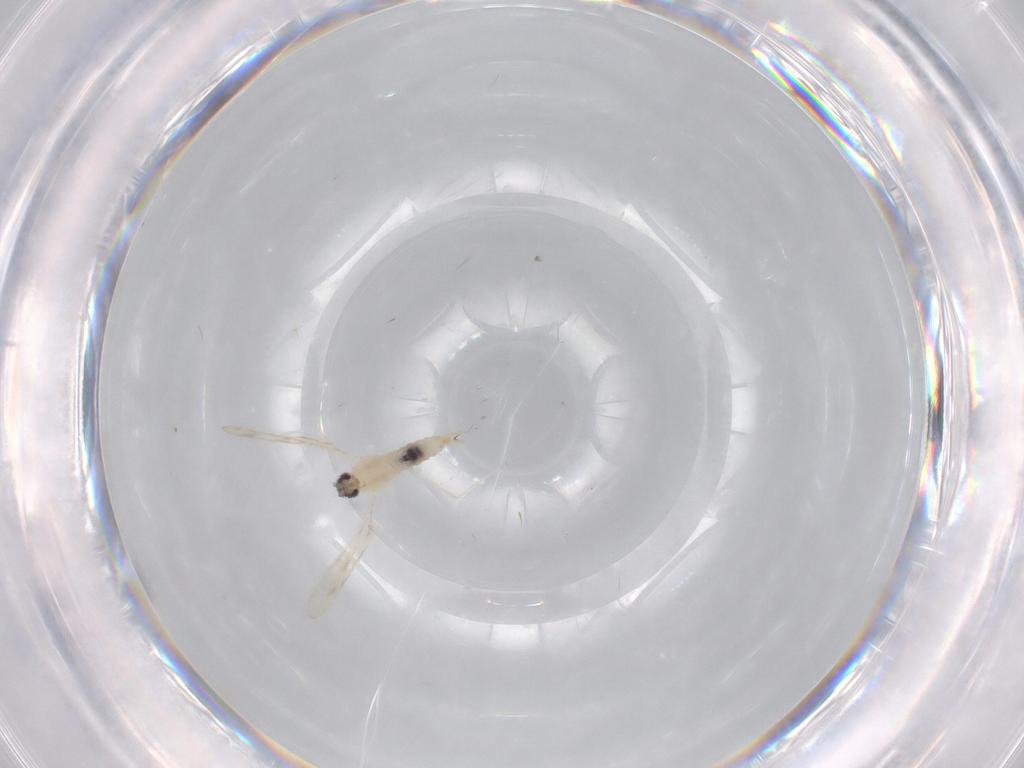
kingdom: Animalia
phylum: Arthropoda
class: Insecta
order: Diptera
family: Cecidomyiidae
